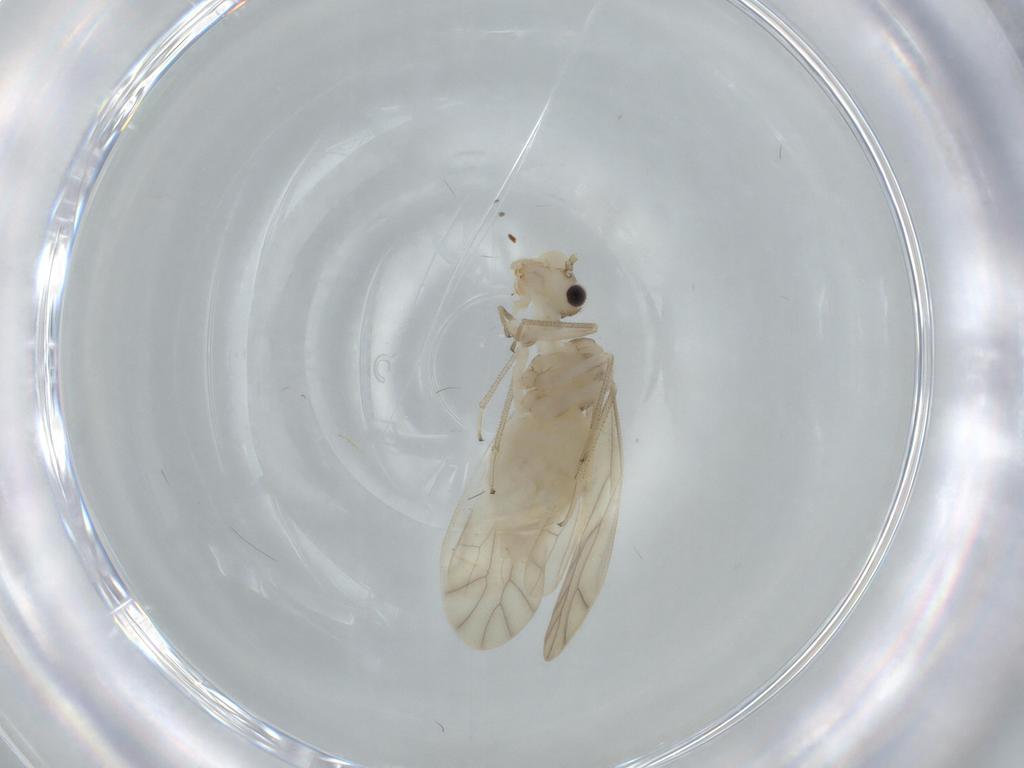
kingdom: Animalia
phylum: Arthropoda
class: Insecta
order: Psocodea
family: Caeciliusidae
